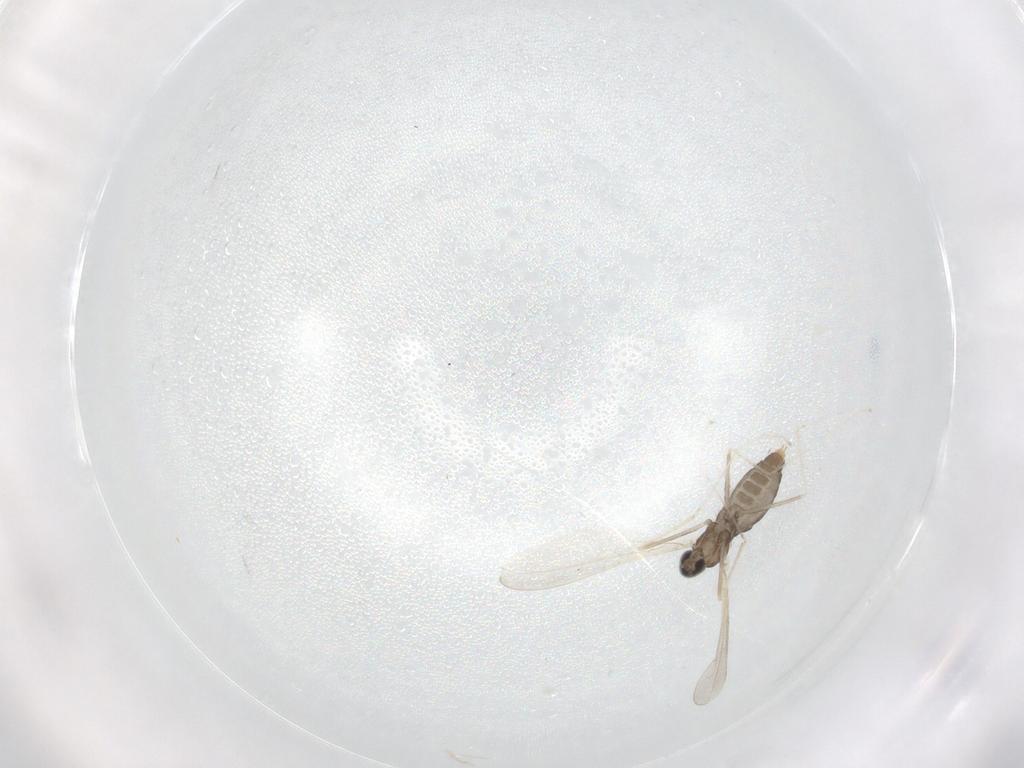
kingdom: Animalia
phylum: Arthropoda
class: Insecta
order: Diptera
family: Cecidomyiidae
